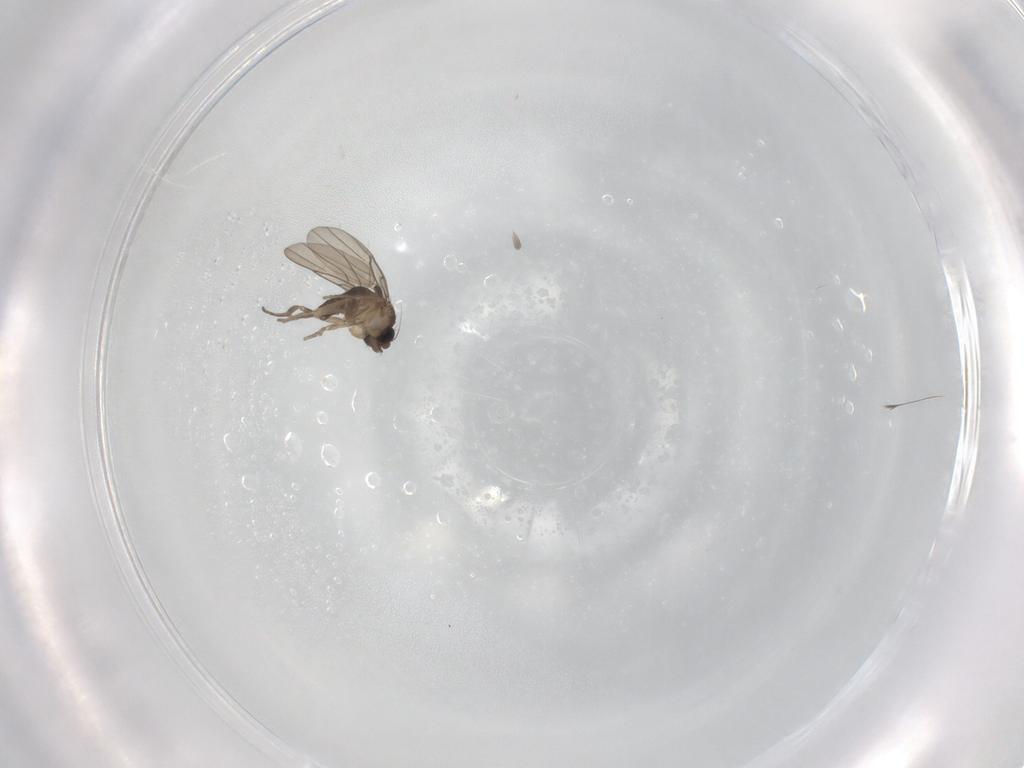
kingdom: Animalia
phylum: Arthropoda
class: Insecta
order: Diptera
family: Phoridae
